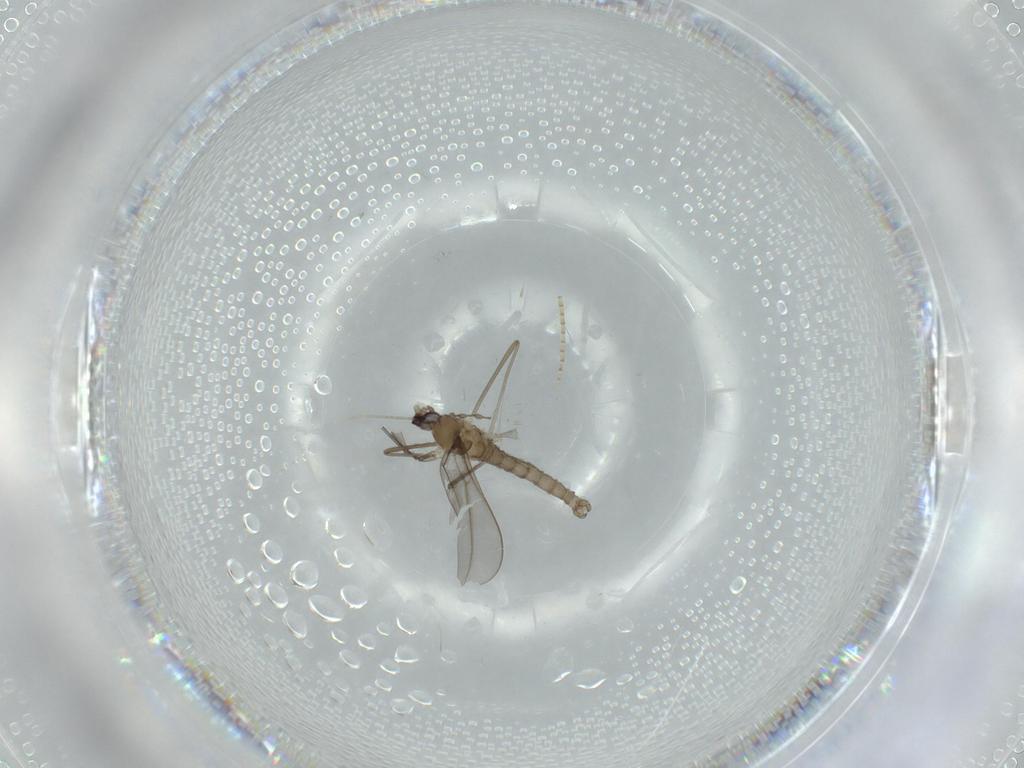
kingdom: Animalia
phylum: Arthropoda
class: Insecta
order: Diptera
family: Cecidomyiidae
